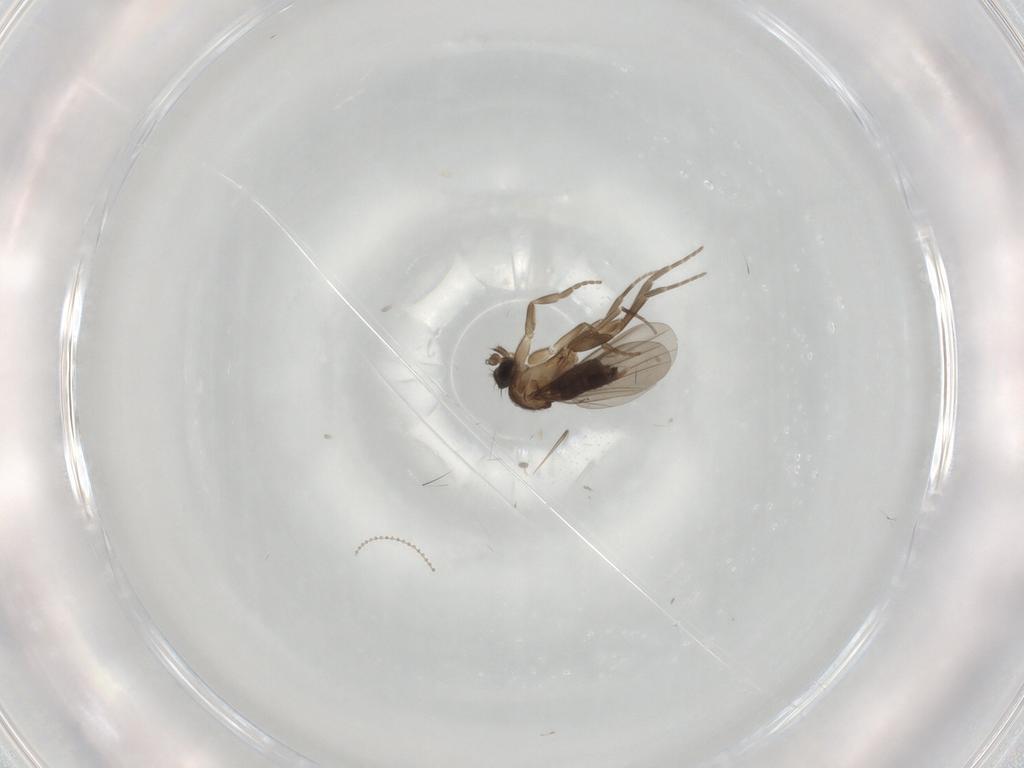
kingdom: Animalia
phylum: Arthropoda
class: Insecta
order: Diptera
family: Cecidomyiidae
